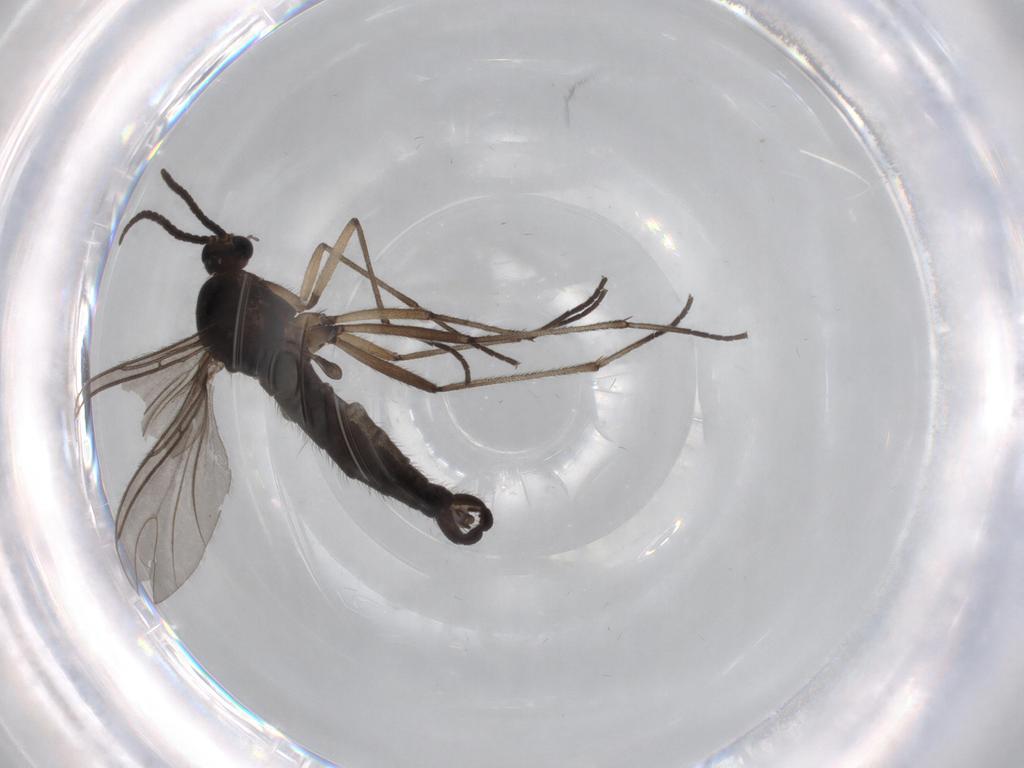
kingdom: Animalia
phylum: Arthropoda
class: Insecta
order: Diptera
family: Sciaridae
